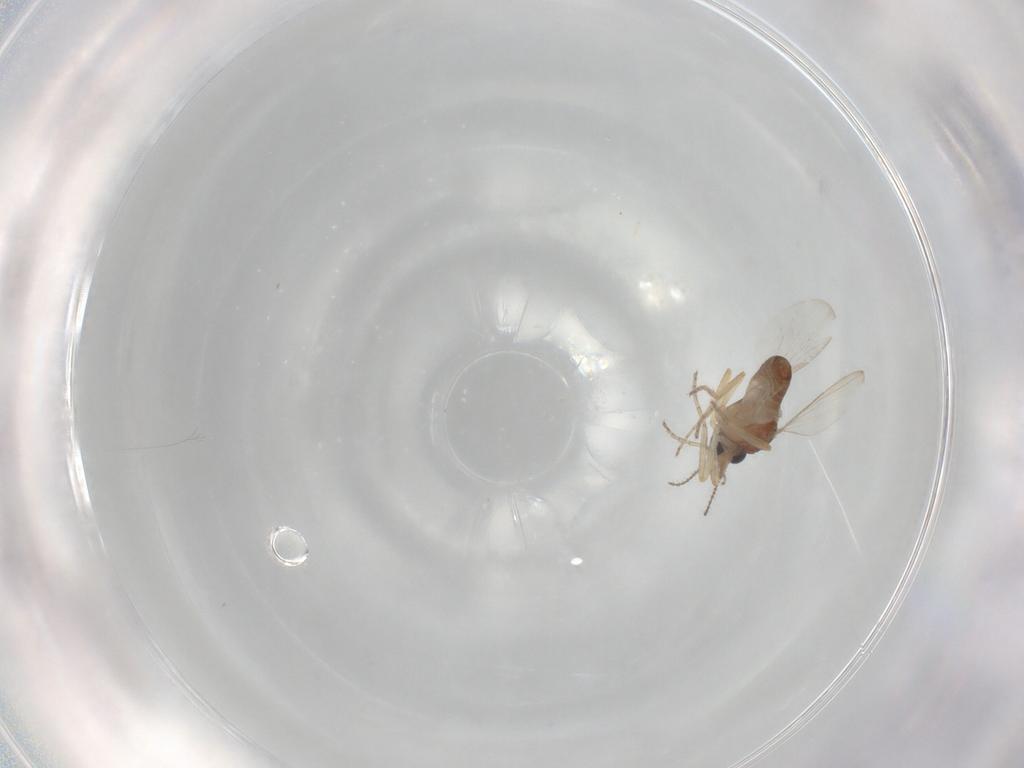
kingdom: Animalia
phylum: Arthropoda
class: Insecta
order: Diptera
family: Ceratopogonidae
